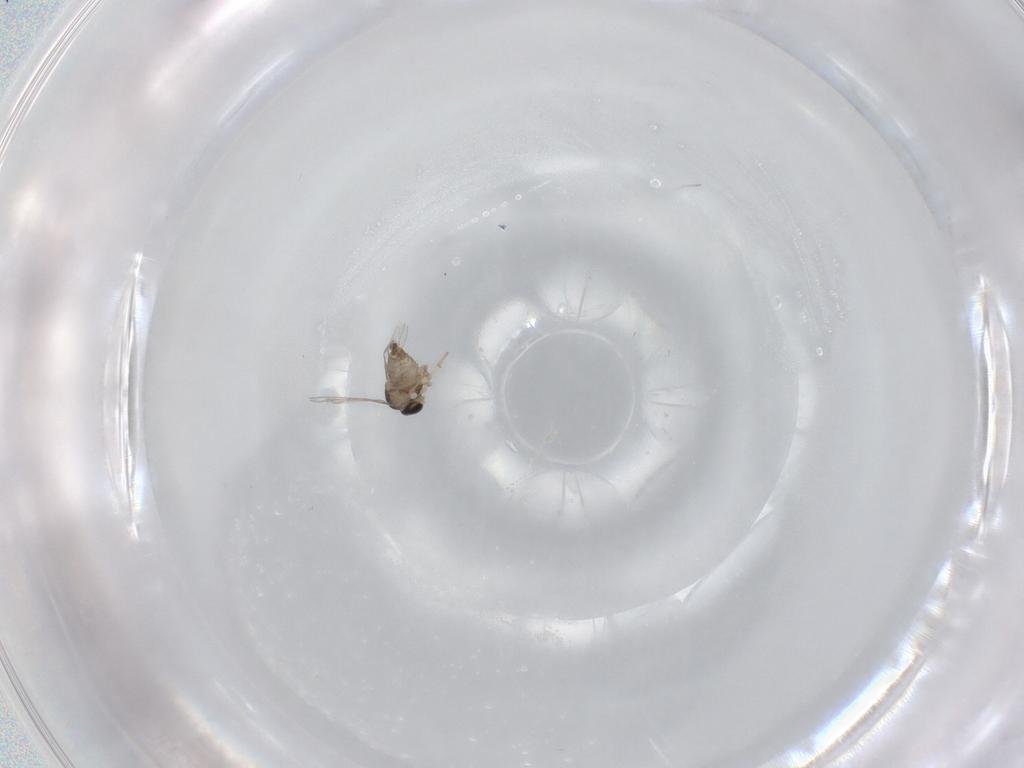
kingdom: Animalia
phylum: Arthropoda
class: Insecta
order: Diptera
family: Cecidomyiidae
